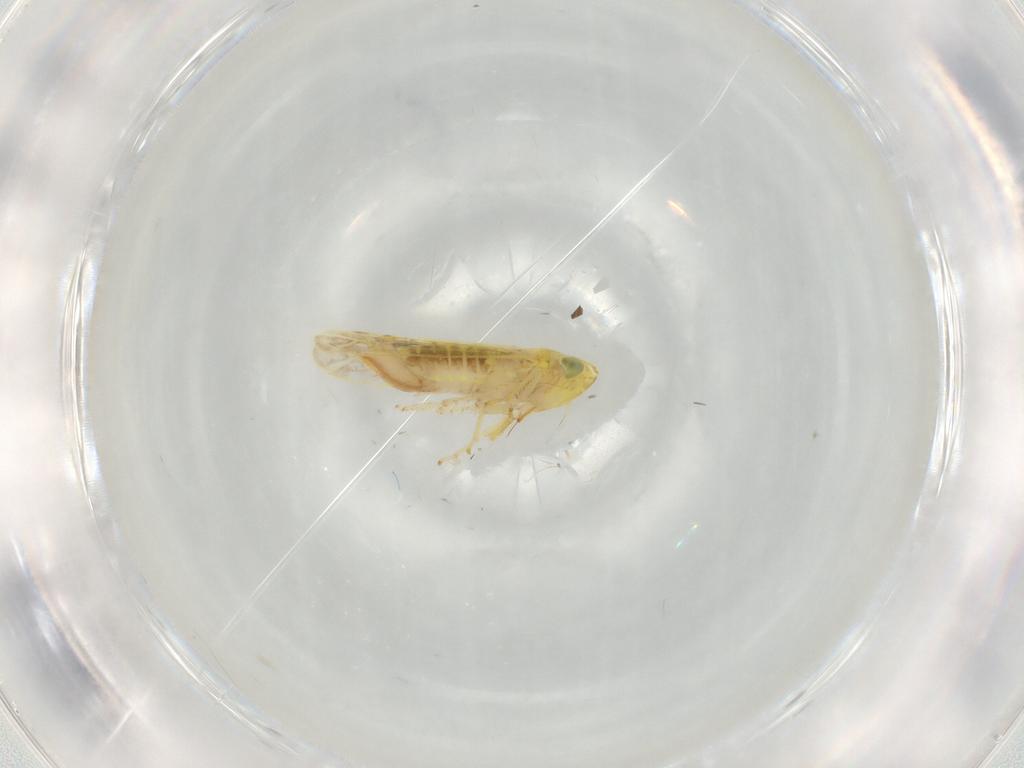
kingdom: Animalia
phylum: Arthropoda
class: Insecta
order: Hemiptera
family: Cicadellidae
